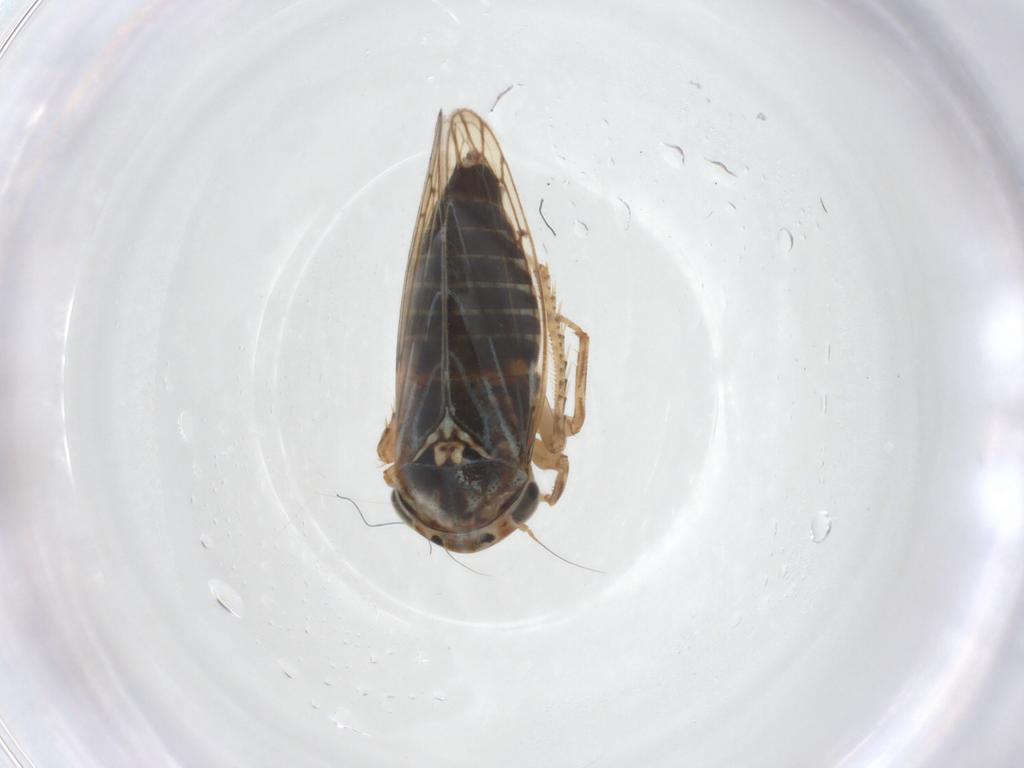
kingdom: Animalia
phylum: Arthropoda
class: Insecta
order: Hemiptera
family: Cicadellidae
